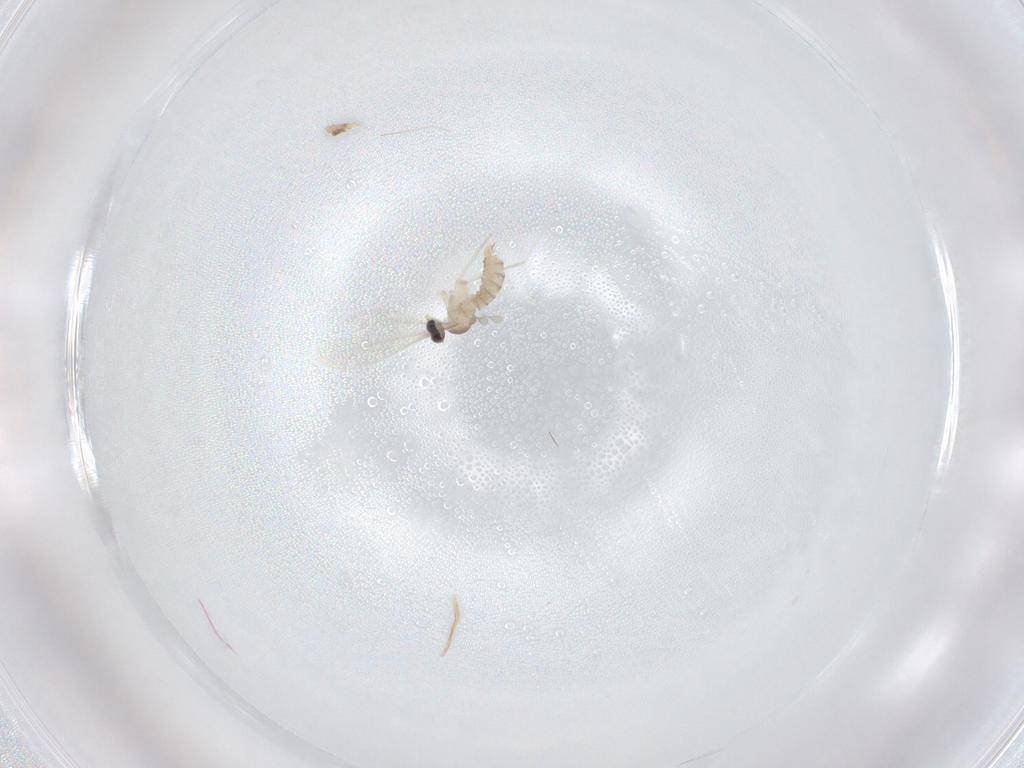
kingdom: Animalia
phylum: Arthropoda
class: Insecta
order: Diptera
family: Cecidomyiidae
